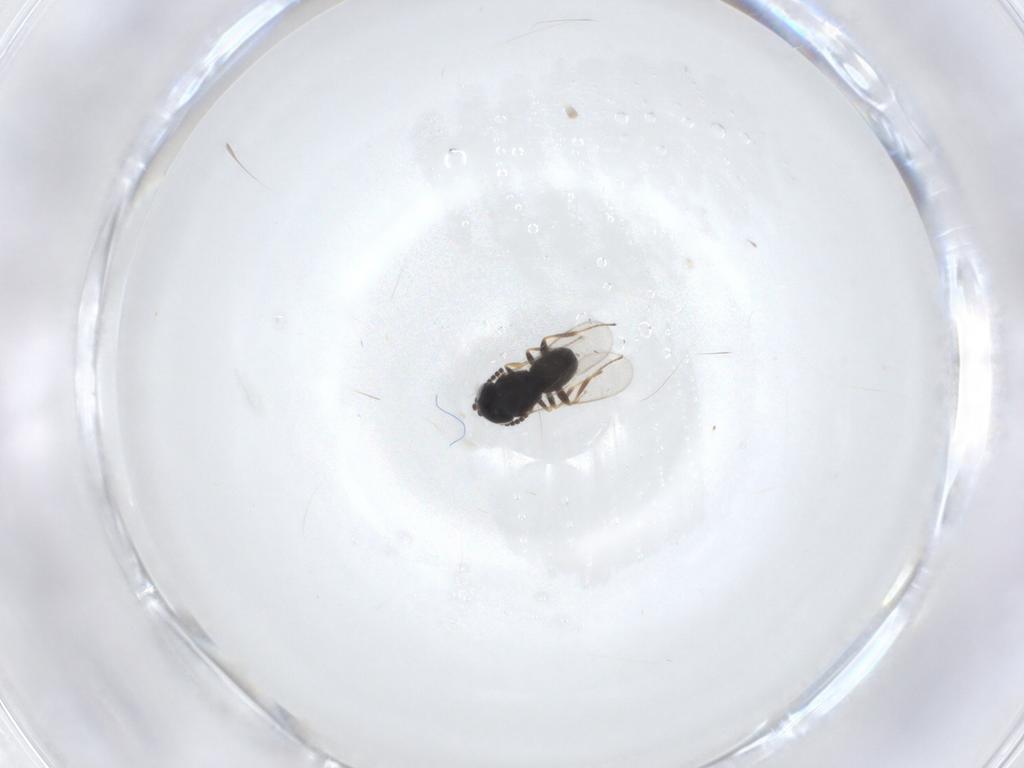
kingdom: Animalia
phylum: Arthropoda
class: Insecta
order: Hymenoptera
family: Scelionidae
